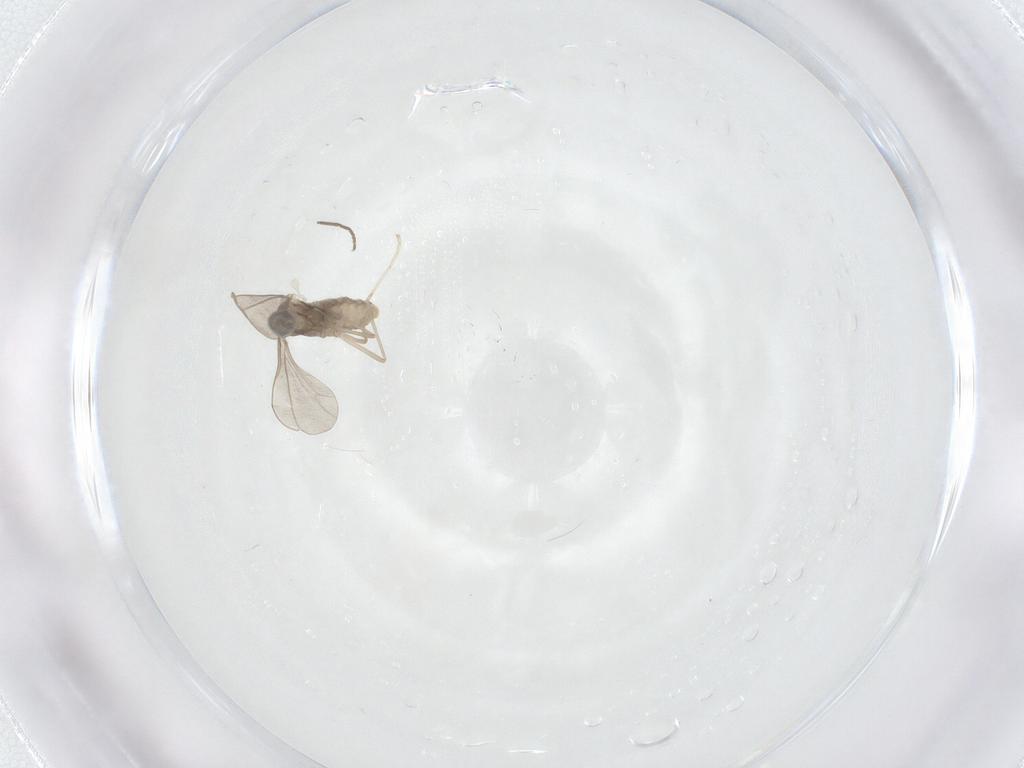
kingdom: Animalia
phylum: Arthropoda
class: Insecta
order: Diptera
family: Cecidomyiidae
